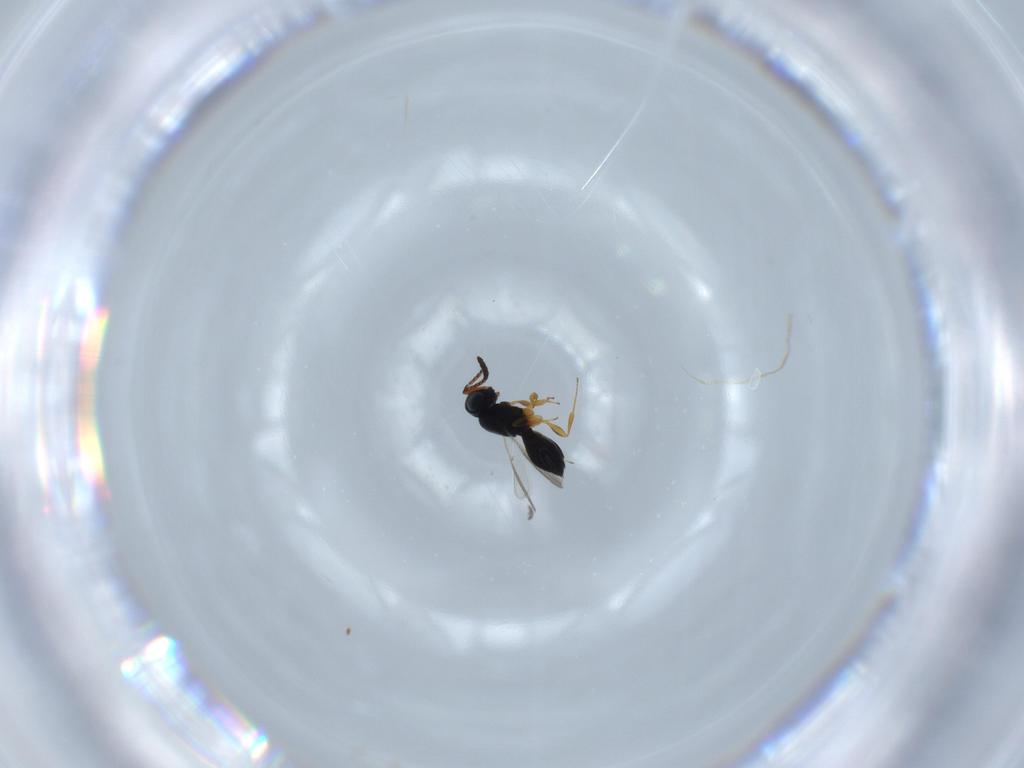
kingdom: Animalia
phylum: Arthropoda
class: Insecta
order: Hymenoptera
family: Scelionidae
